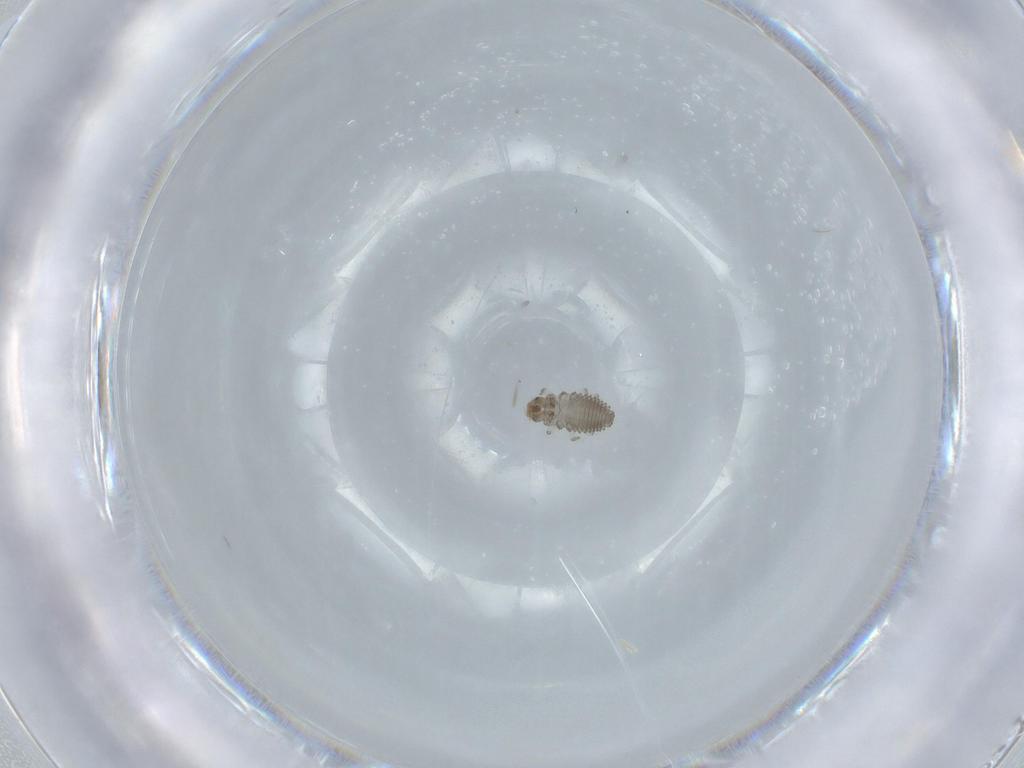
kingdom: Animalia
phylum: Arthropoda
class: Insecta
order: Coleoptera
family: Coccinellidae
